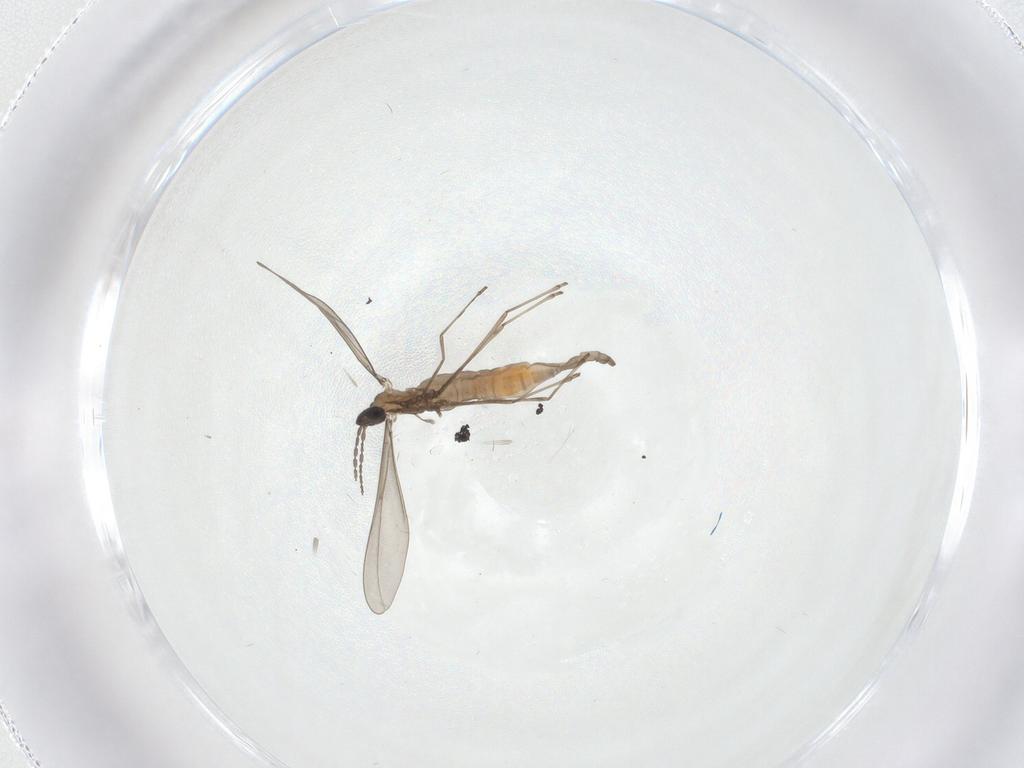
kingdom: Animalia
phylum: Arthropoda
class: Insecta
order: Diptera
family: Cecidomyiidae
